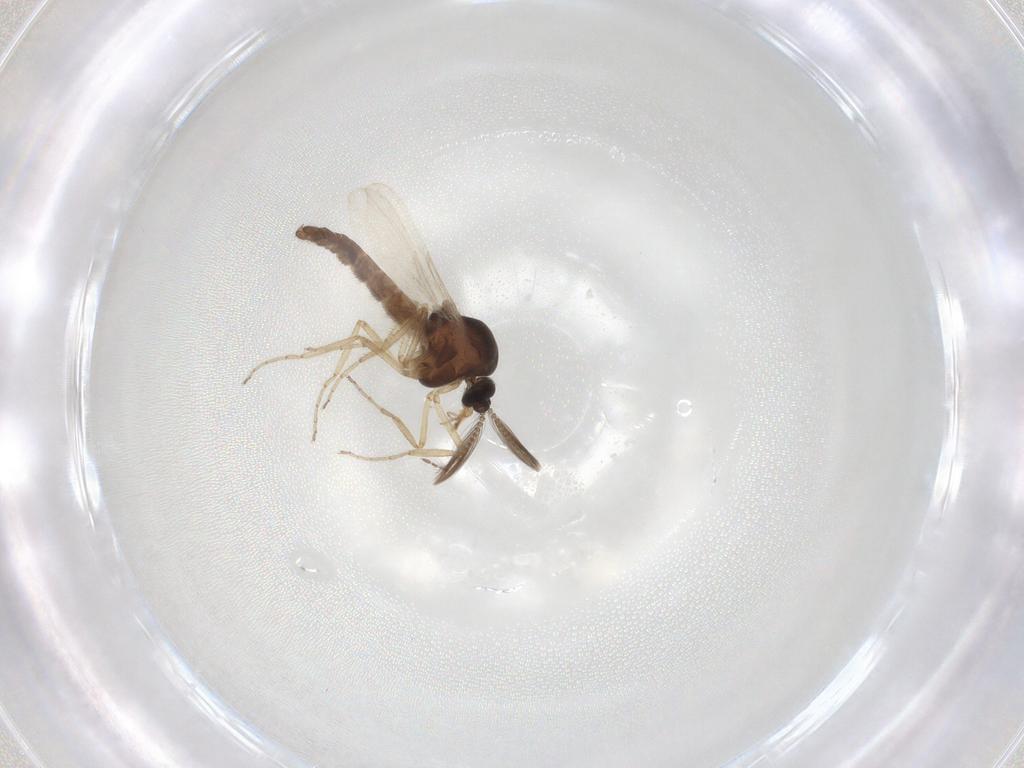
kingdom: Animalia
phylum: Arthropoda
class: Insecta
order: Diptera
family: Ceratopogonidae
